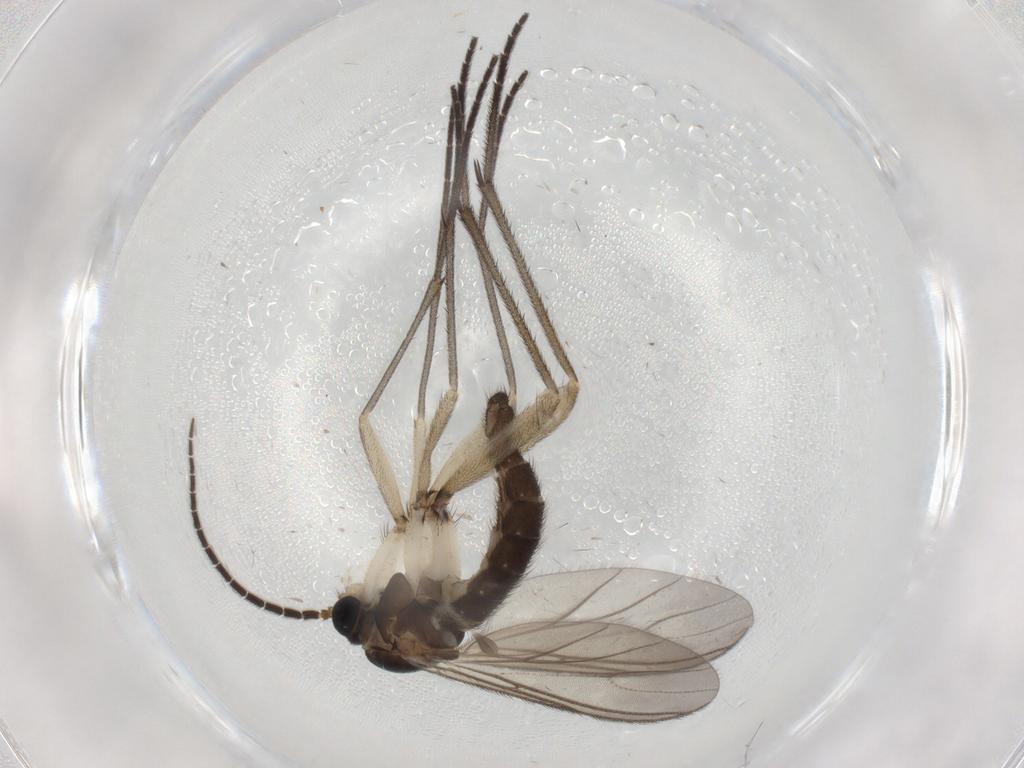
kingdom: Animalia
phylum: Arthropoda
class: Insecta
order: Diptera
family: Sciaridae
